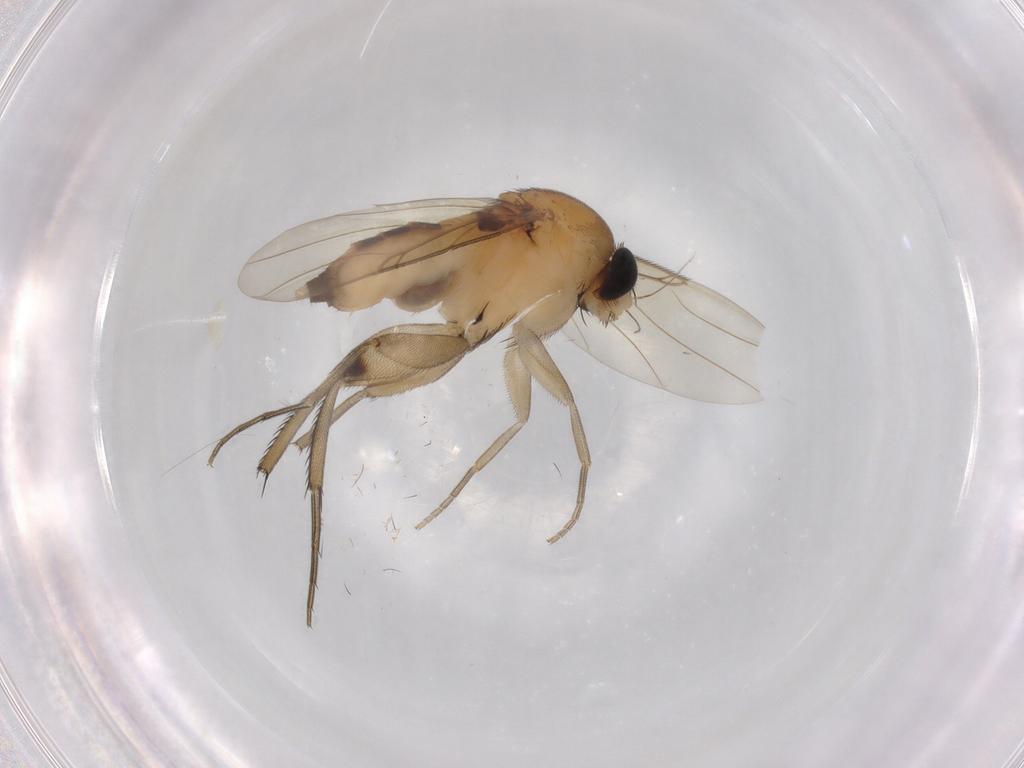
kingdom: Animalia
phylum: Arthropoda
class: Insecta
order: Diptera
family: Phoridae
